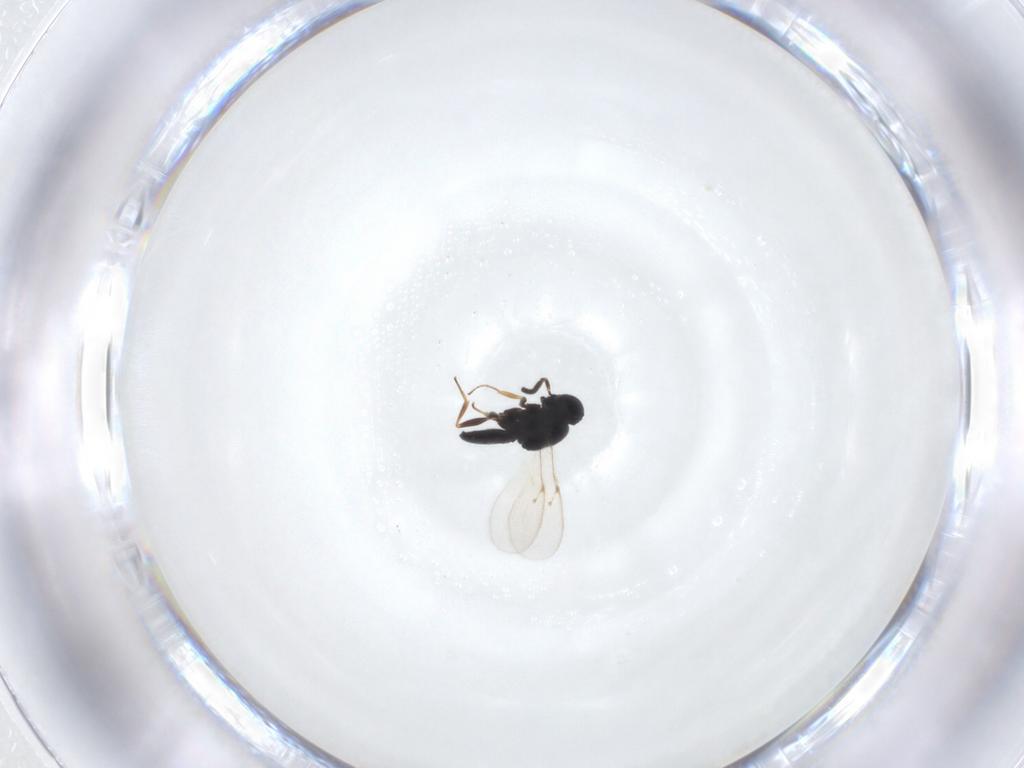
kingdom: Animalia
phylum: Arthropoda
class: Insecta
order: Hymenoptera
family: Scelionidae
